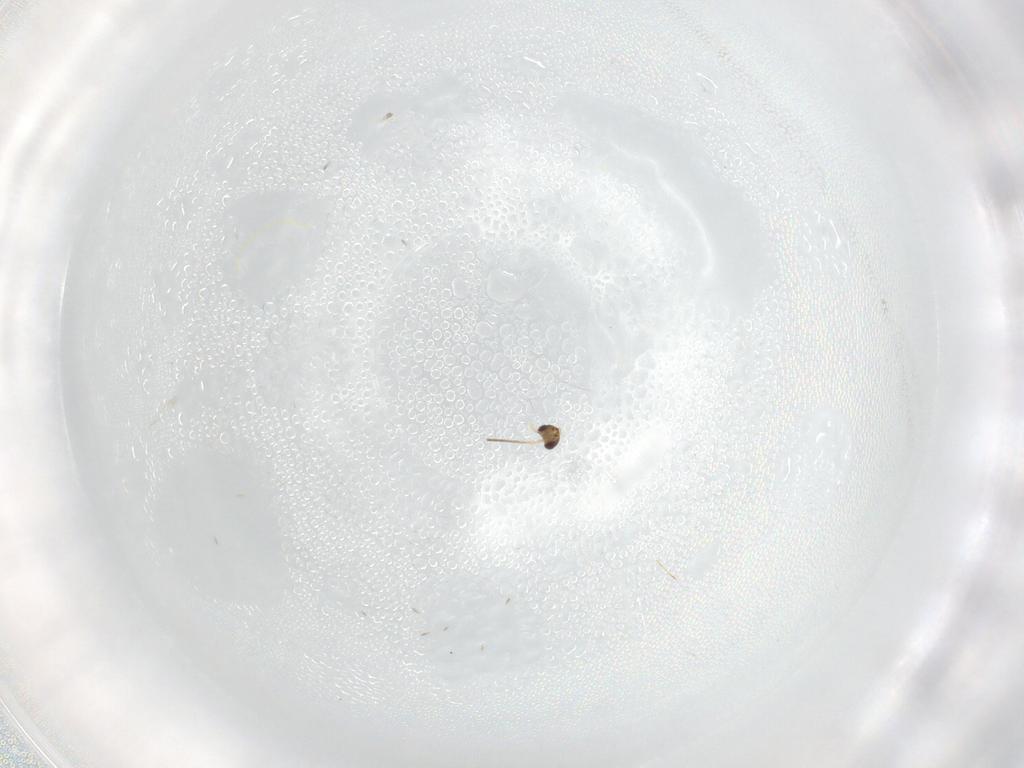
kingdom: Animalia
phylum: Arthropoda
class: Insecta
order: Hymenoptera
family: Mymaridae
